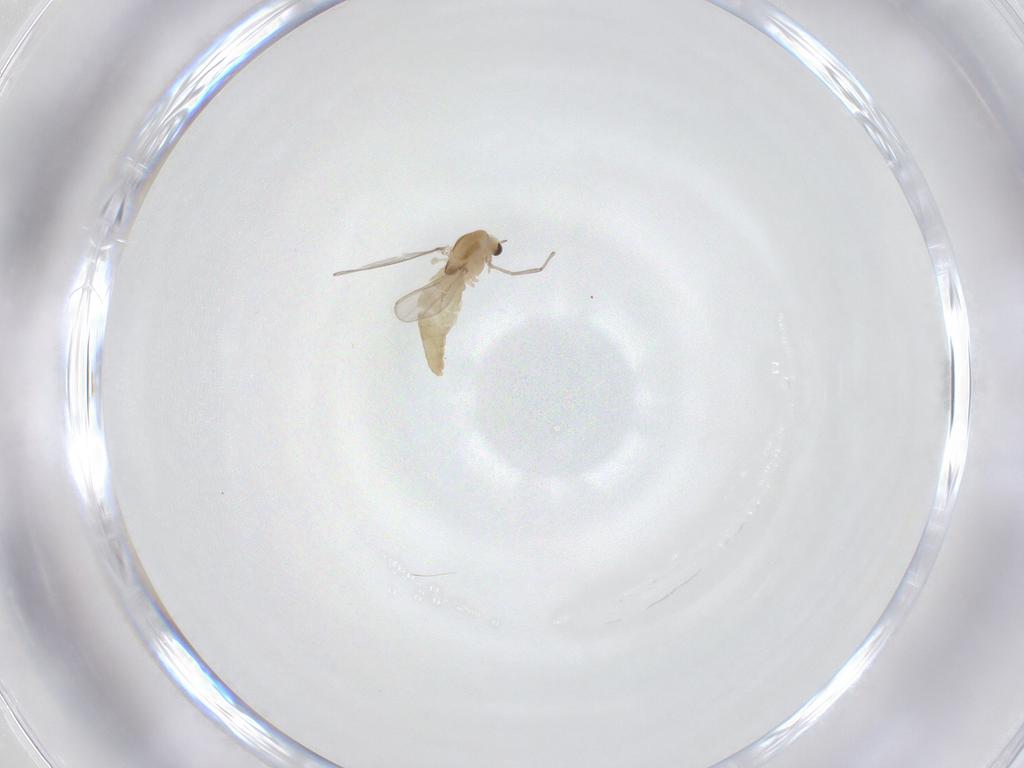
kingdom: Animalia
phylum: Arthropoda
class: Insecta
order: Diptera
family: Chironomidae
